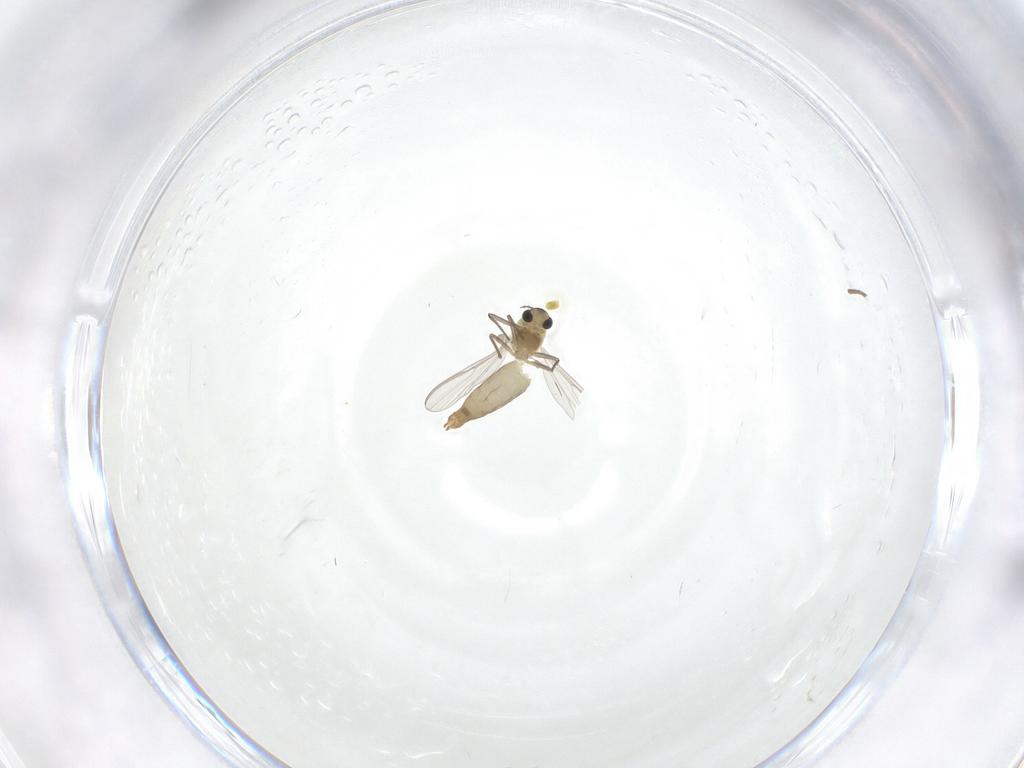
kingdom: Animalia
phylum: Arthropoda
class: Insecta
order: Diptera
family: Chironomidae
